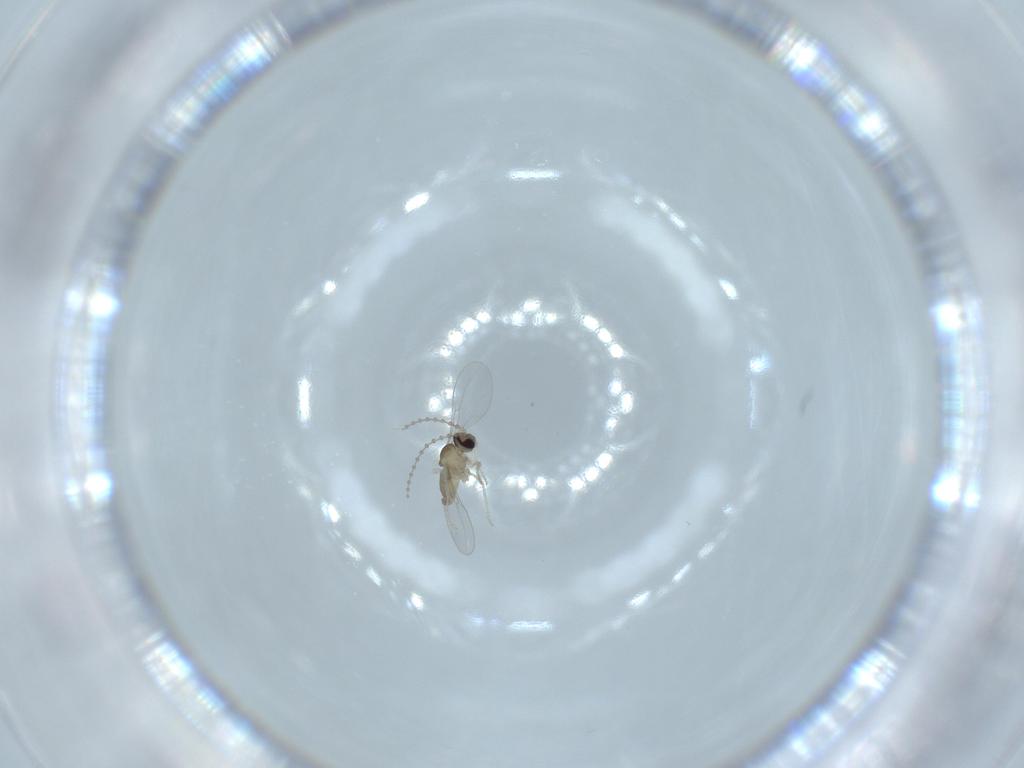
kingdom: Animalia
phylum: Arthropoda
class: Insecta
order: Diptera
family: Cecidomyiidae
